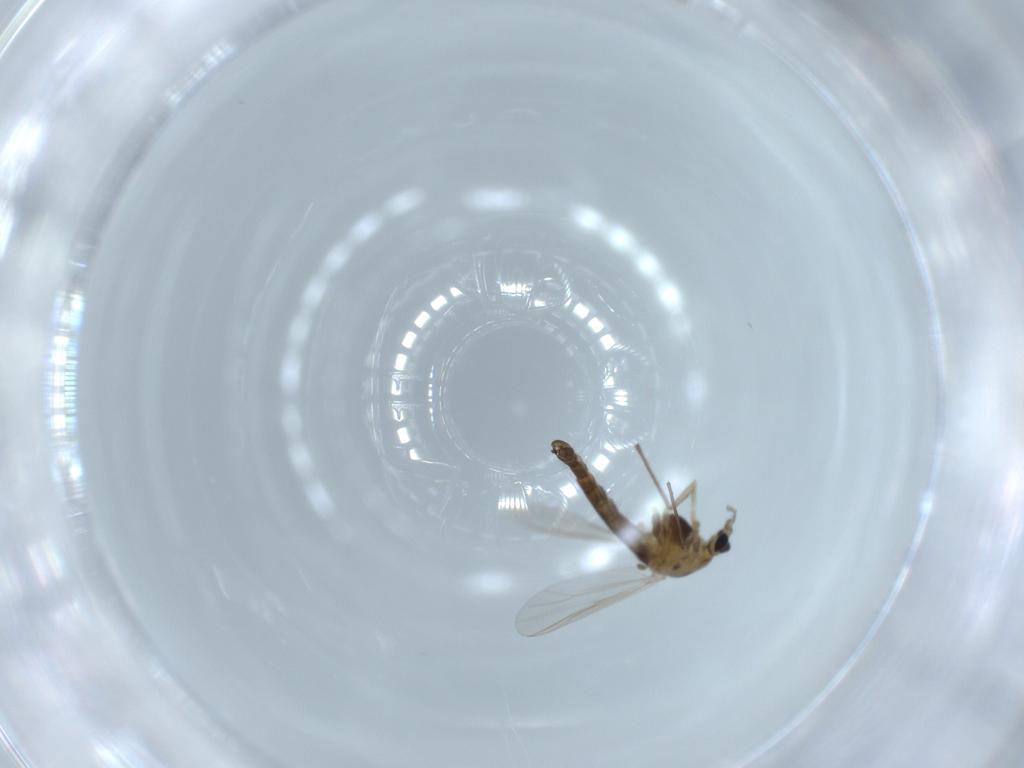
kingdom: Animalia
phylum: Arthropoda
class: Insecta
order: Diptera
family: Chironomidae
